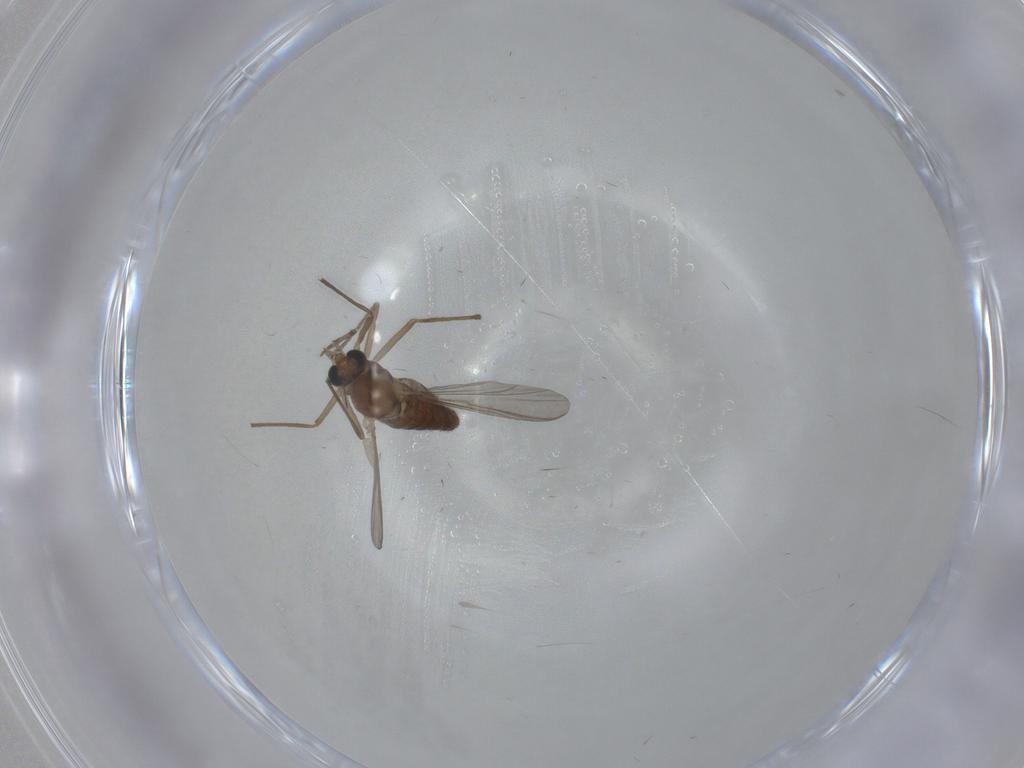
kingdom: Animalia
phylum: Arthropoda
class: Insecta
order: Diptera
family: Chironomidae
